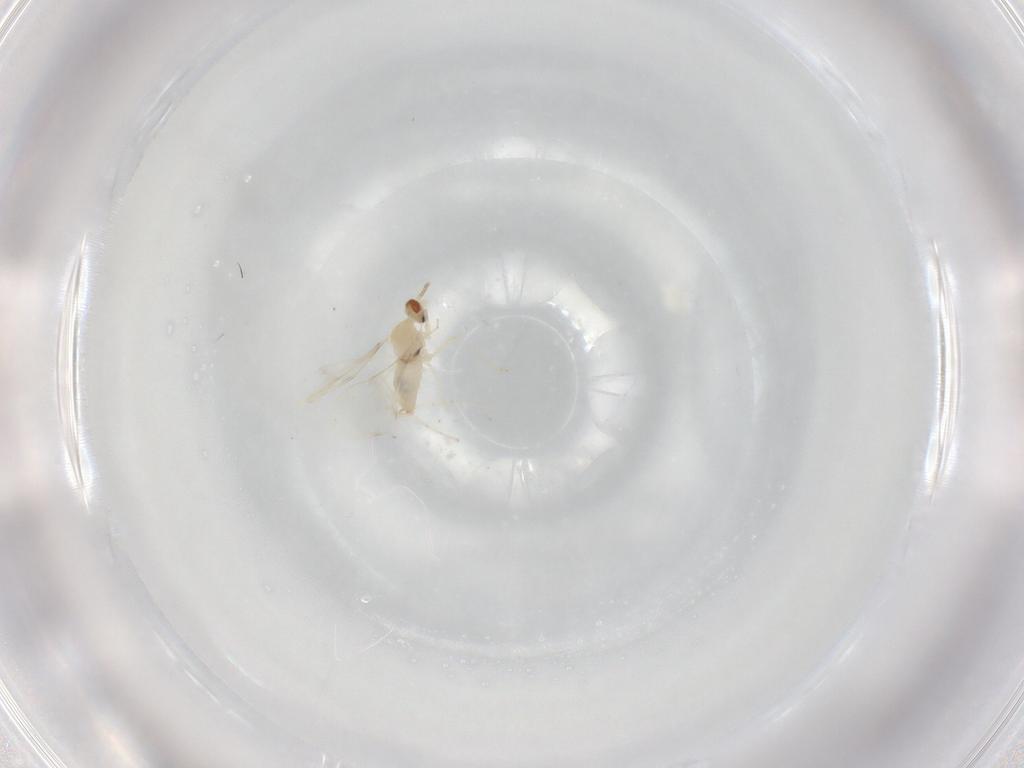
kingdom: Animalia
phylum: Arthropoda
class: Insecta
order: Diptera
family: Cecidomyiidae
